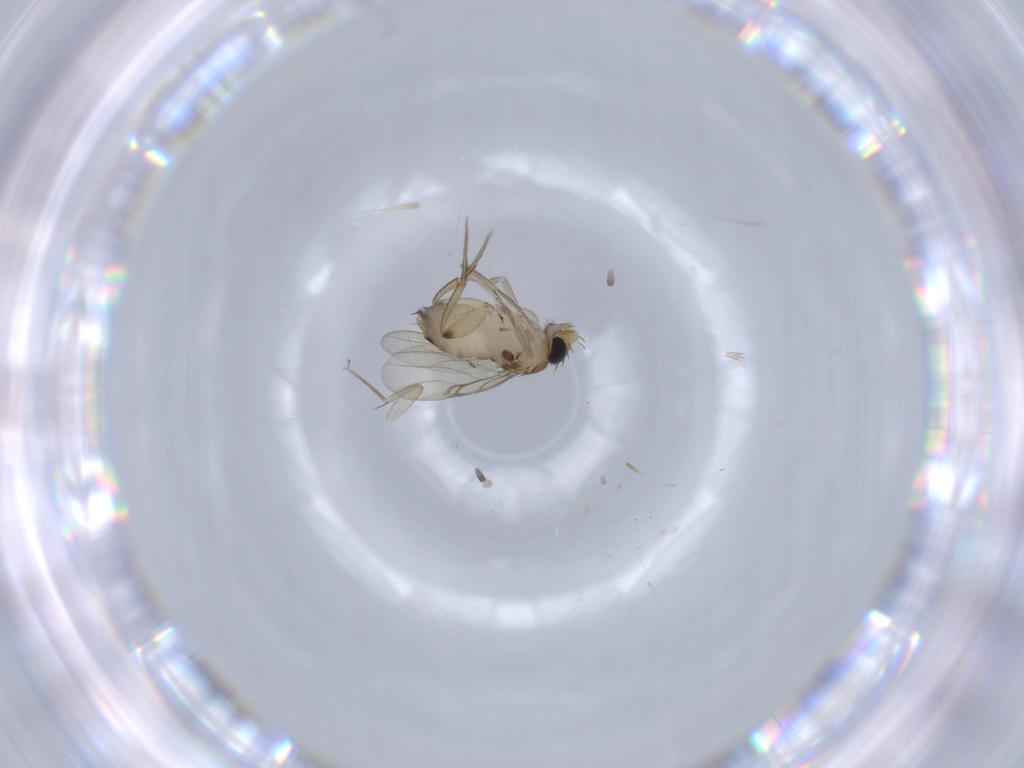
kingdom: Animalia
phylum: Arthropoda
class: Insecta
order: Diptera
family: Phoridae
